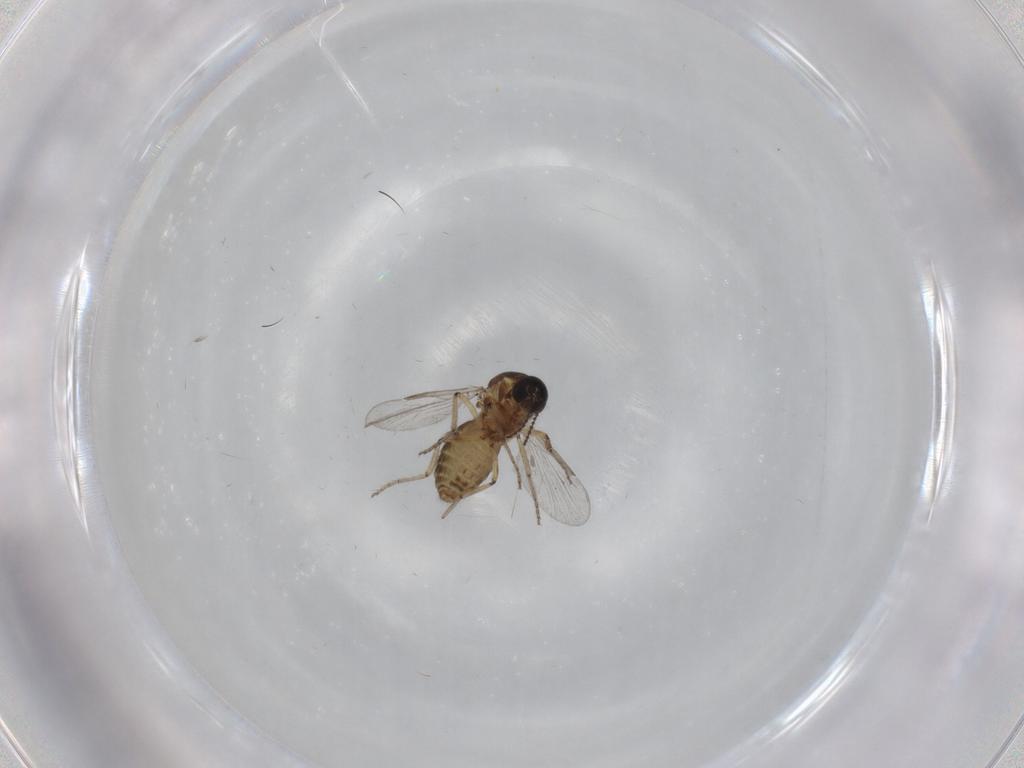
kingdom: Animalia
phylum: Arthropoda
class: Insecta
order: Diptera
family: Ceratopogonidae
